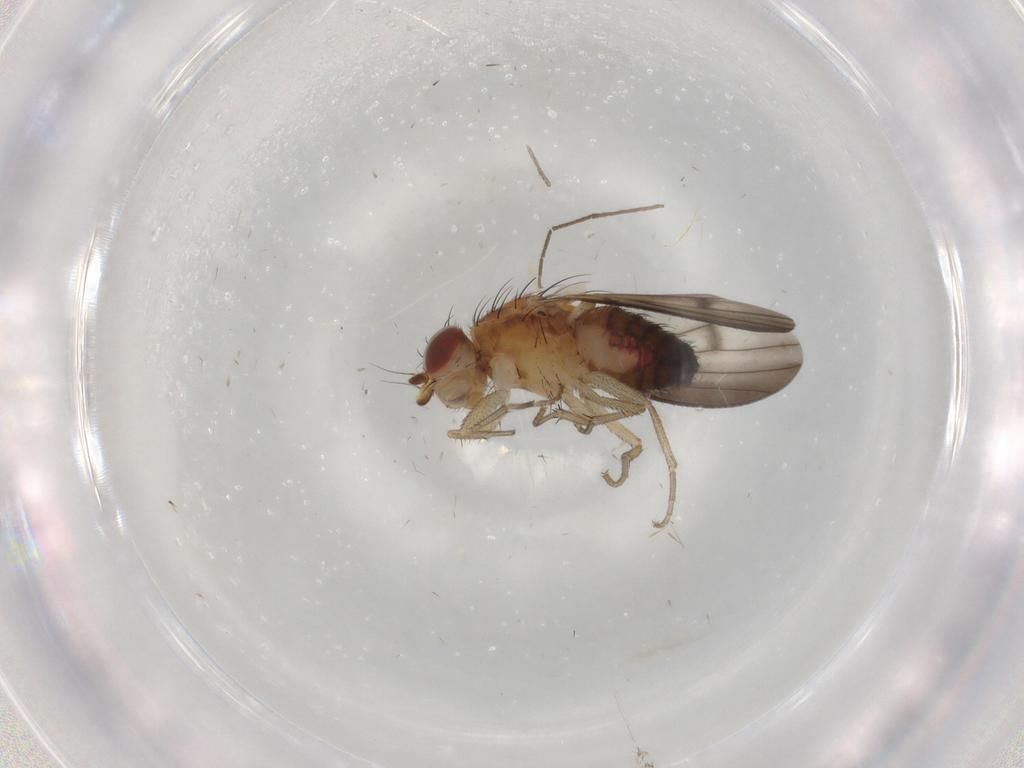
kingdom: Animalia
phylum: Arthropoda
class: Insecta
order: Diptera
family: Heleomyzidae
